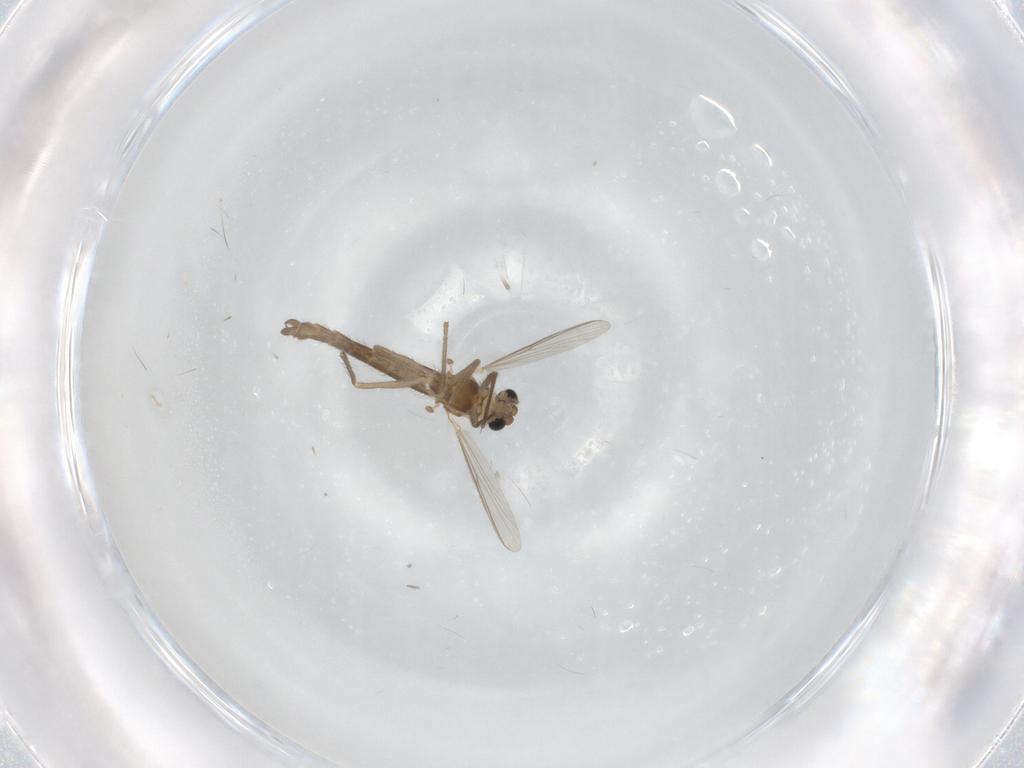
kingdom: Animalia
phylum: Arthropoda
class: Insecta
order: Diptera
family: Chironomidae
